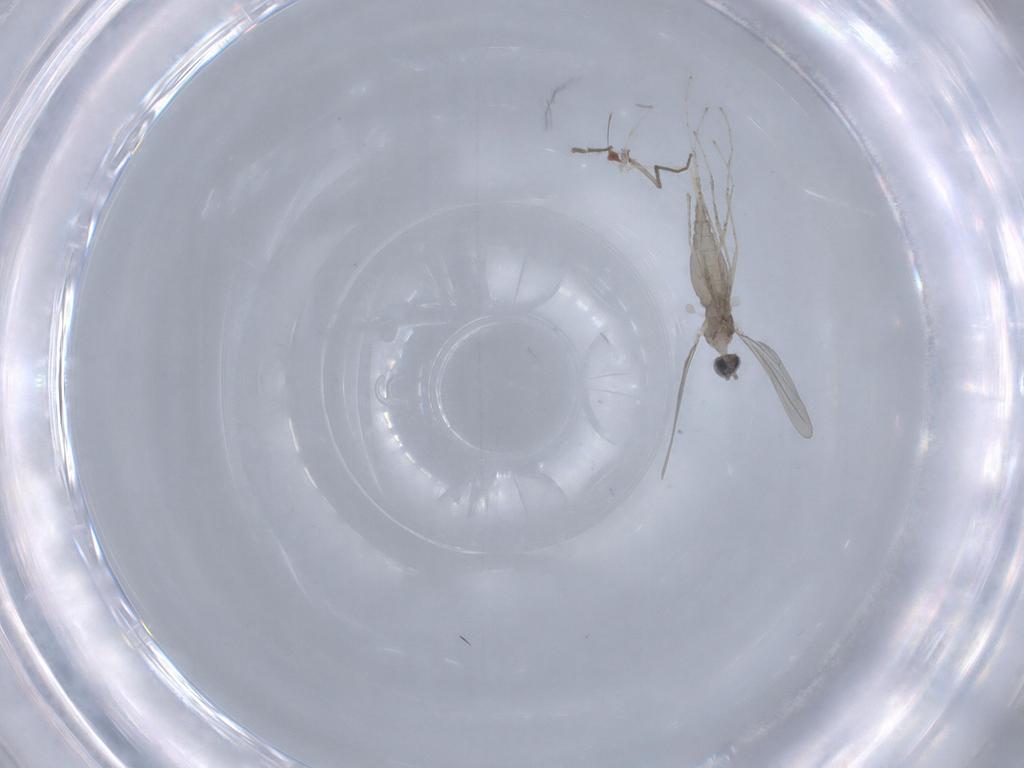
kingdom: Animalia
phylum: Arthropoda
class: Insecta
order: Diptera
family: Cecidomyiidae
